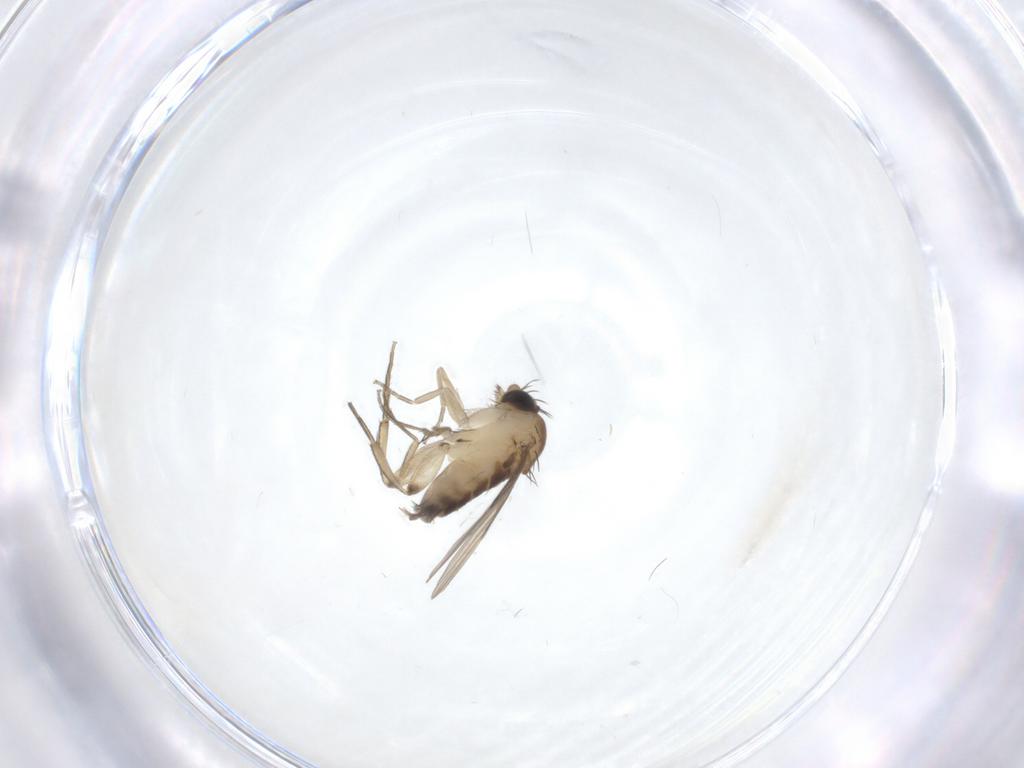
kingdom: Animalia
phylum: Arthropoda
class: Insecta
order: Diptera
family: Phoridae
